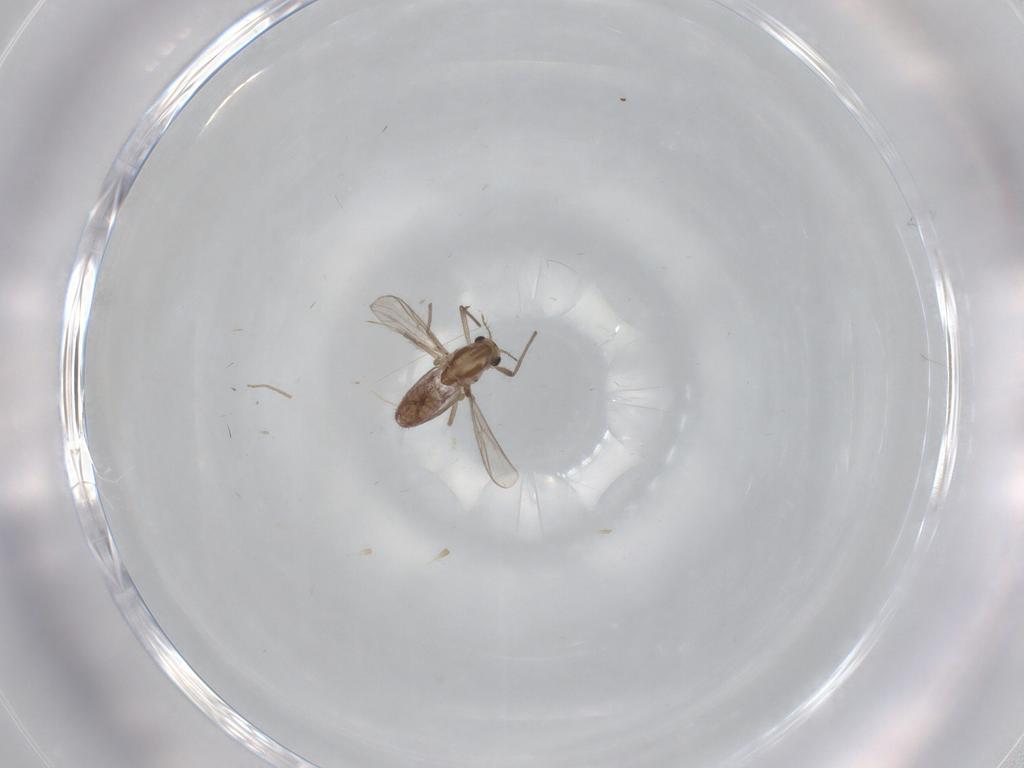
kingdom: Animalia
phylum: Arthropoda
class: Insecta
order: Diptera
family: Chironomidae
